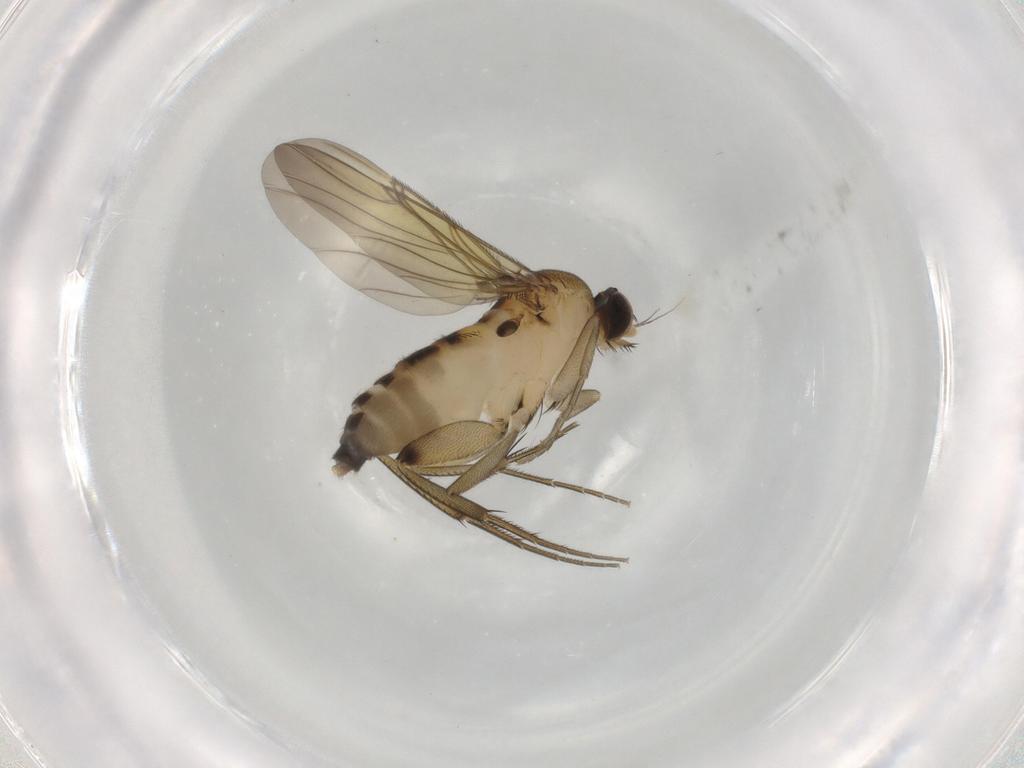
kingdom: Animalia
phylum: Arthropoda
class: Insecta
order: Diptera
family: Phoridae
